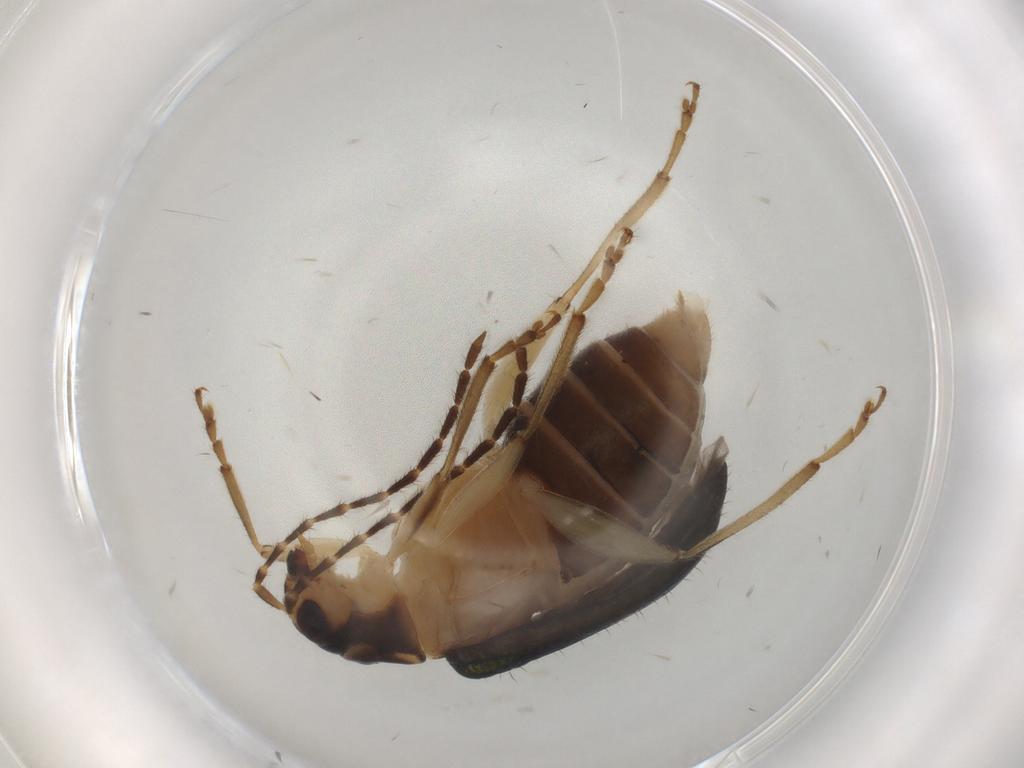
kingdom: Animalia
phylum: Arthropoda
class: Insecta
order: Coleoptera
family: Chrysomelidae
